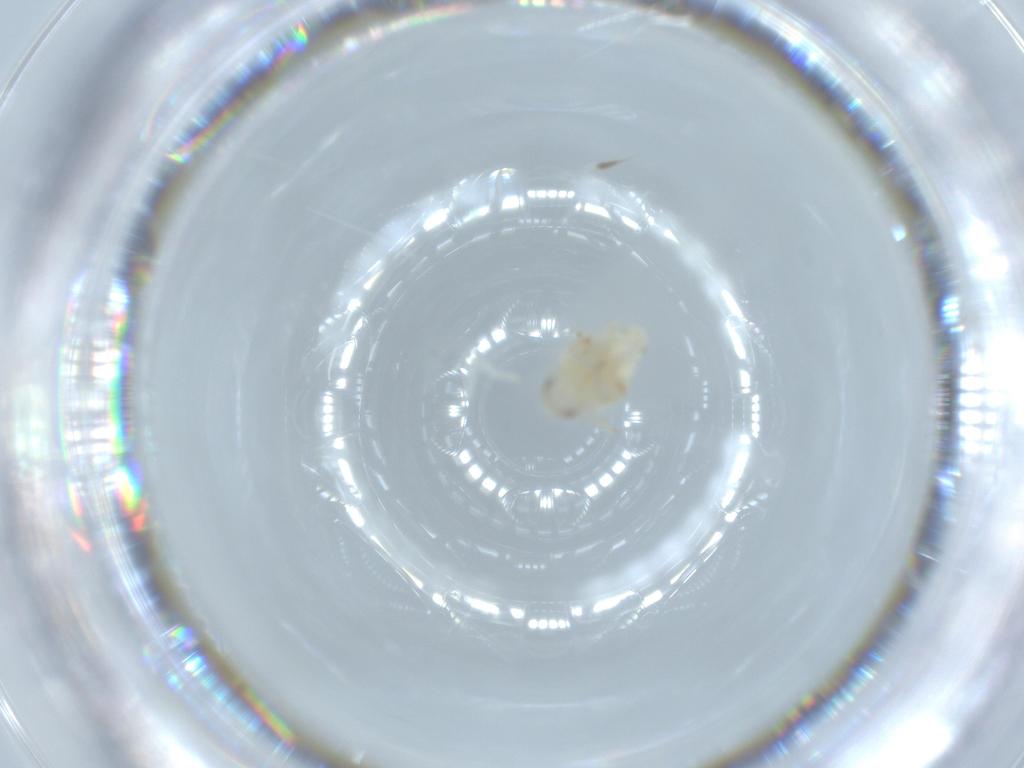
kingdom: Animalia
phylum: Arthropoda
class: Insecta
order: Hemiptera
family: Nogodinidae
